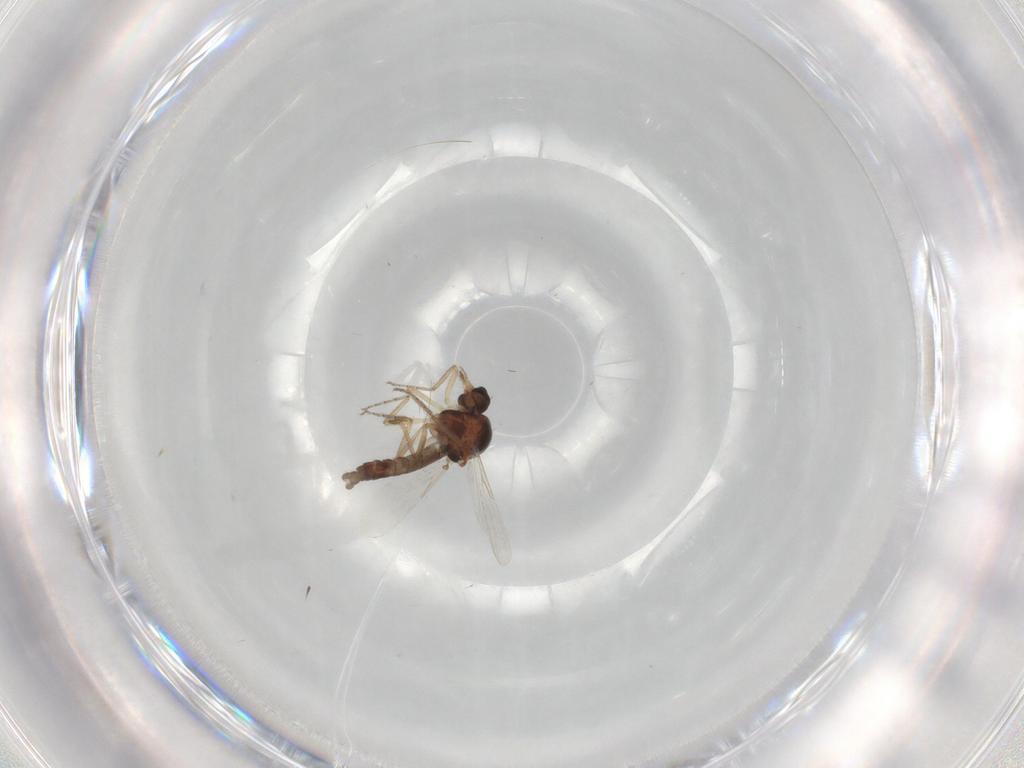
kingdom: Animalia
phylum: Arthropoda
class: Insecta
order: Diptera
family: Ceratopogonidae
